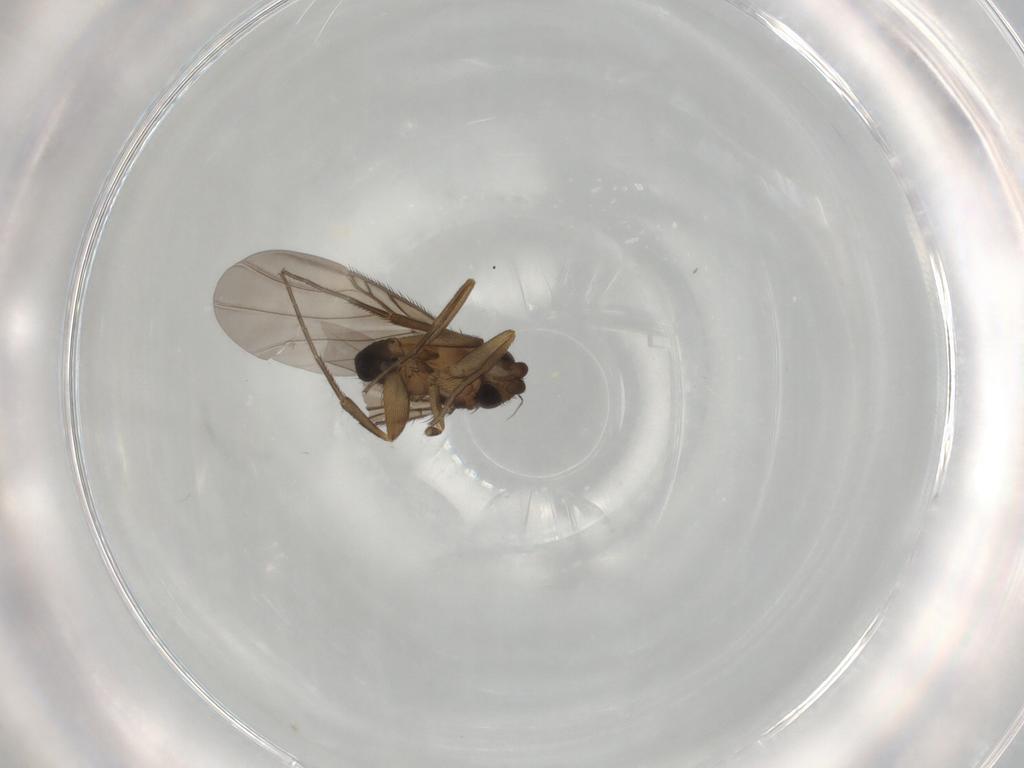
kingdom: Animalia
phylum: Arthropoda
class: Insecta
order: Diptera
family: Phoridae
